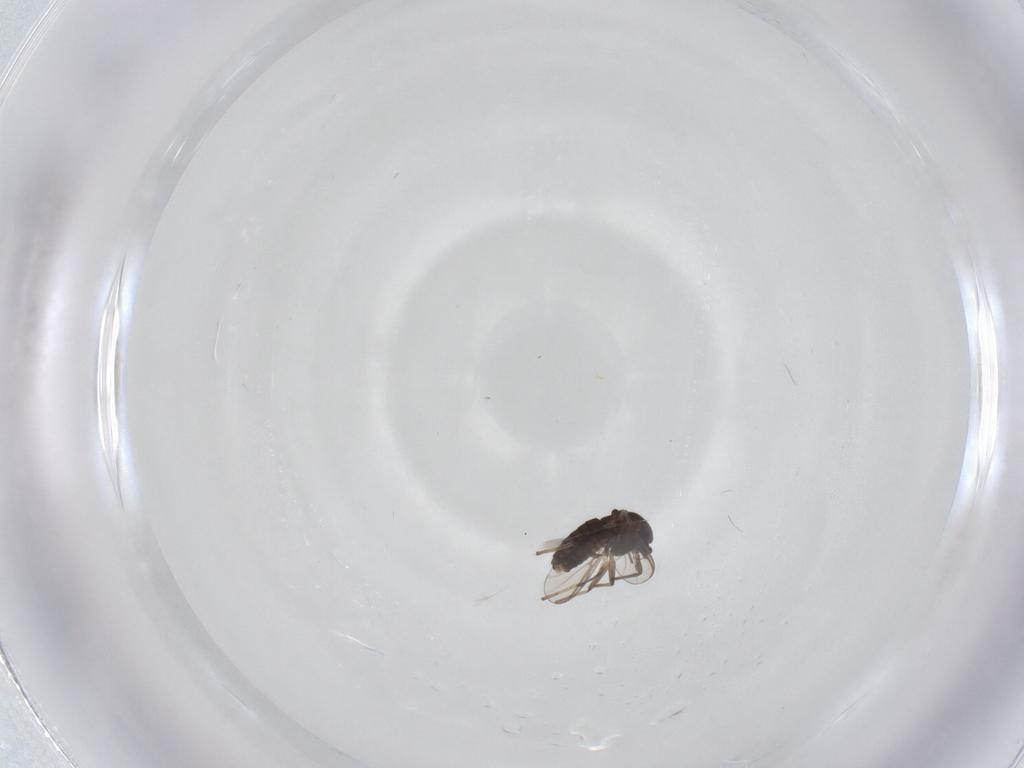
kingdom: Animalia
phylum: Arthropoda
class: Insecta
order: Diptera
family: Chironomidae
